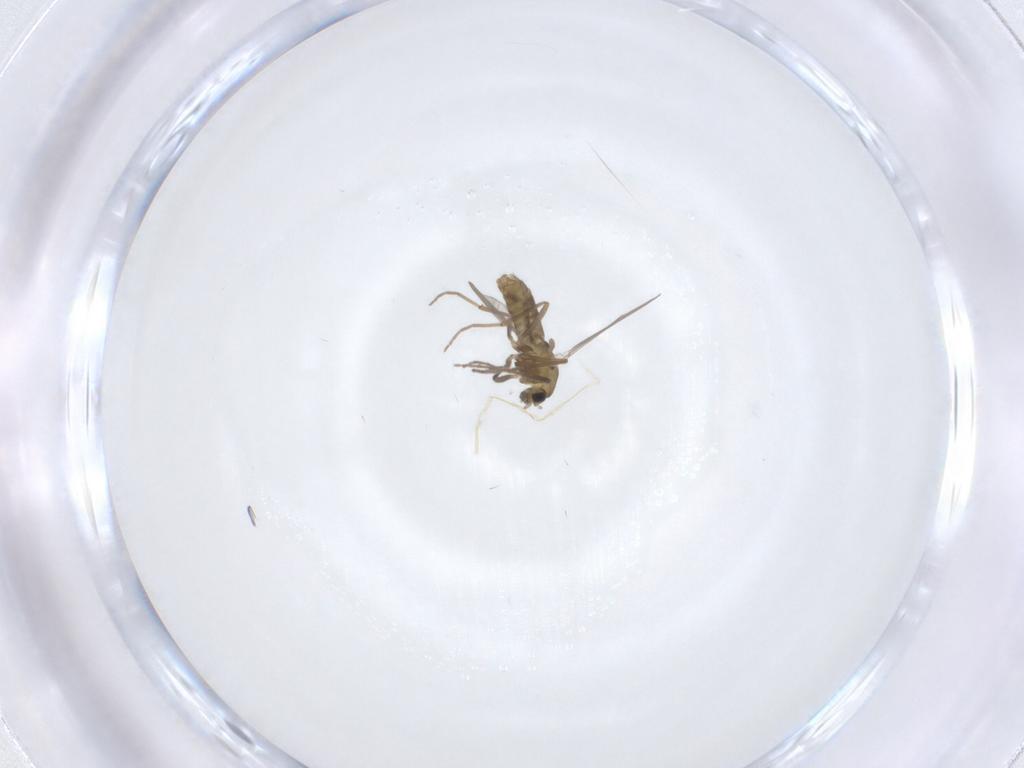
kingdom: Animalia
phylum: Arthropoda
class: Insecta
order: Diptera
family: Chironomidae
